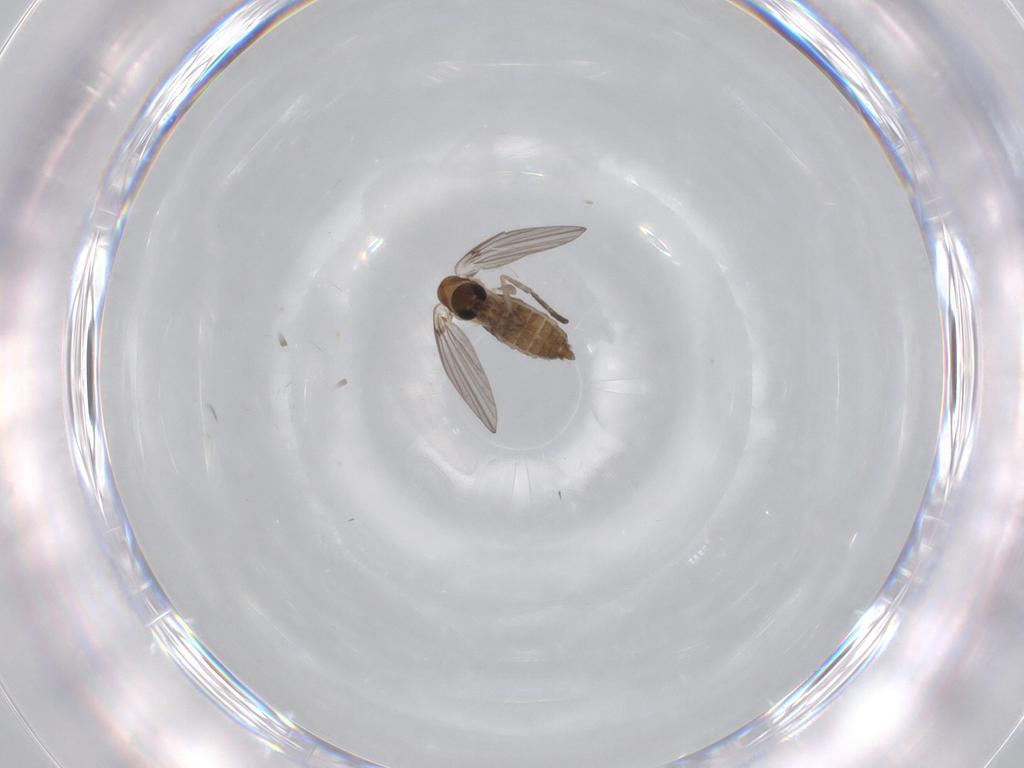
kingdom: Animalia
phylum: Arthropoda
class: Insecta
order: Diptera
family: Psychodidae
